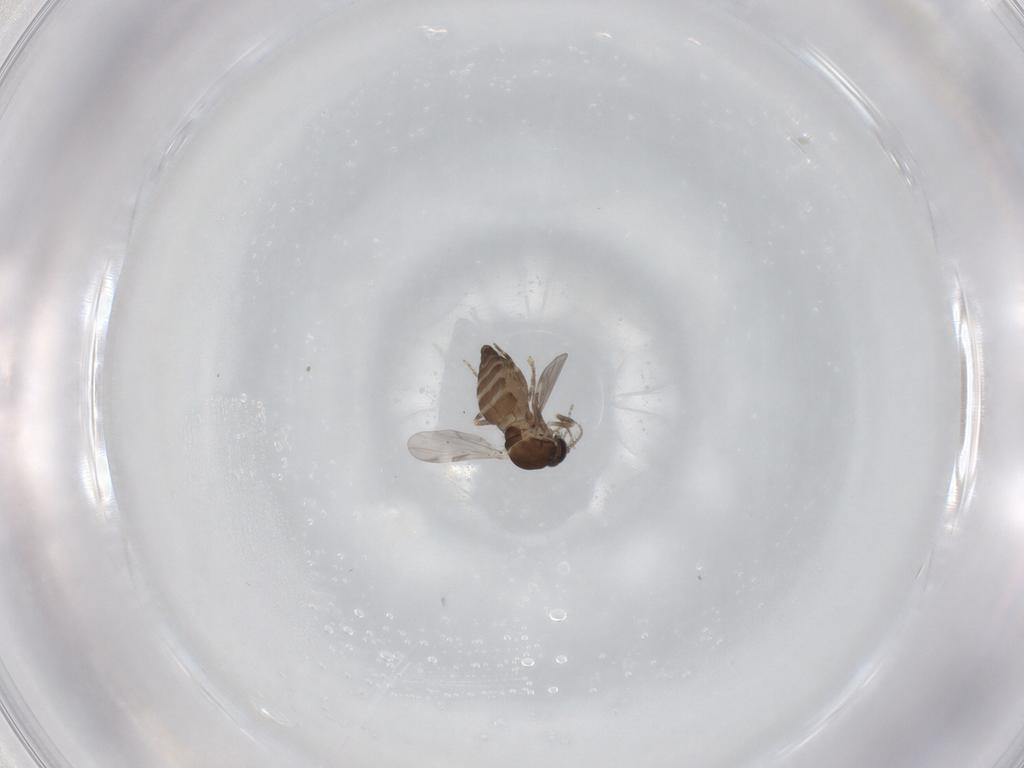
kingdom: Animalia
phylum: Arthropoda
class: Insecta
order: Diptera
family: Ceratopogonidae
